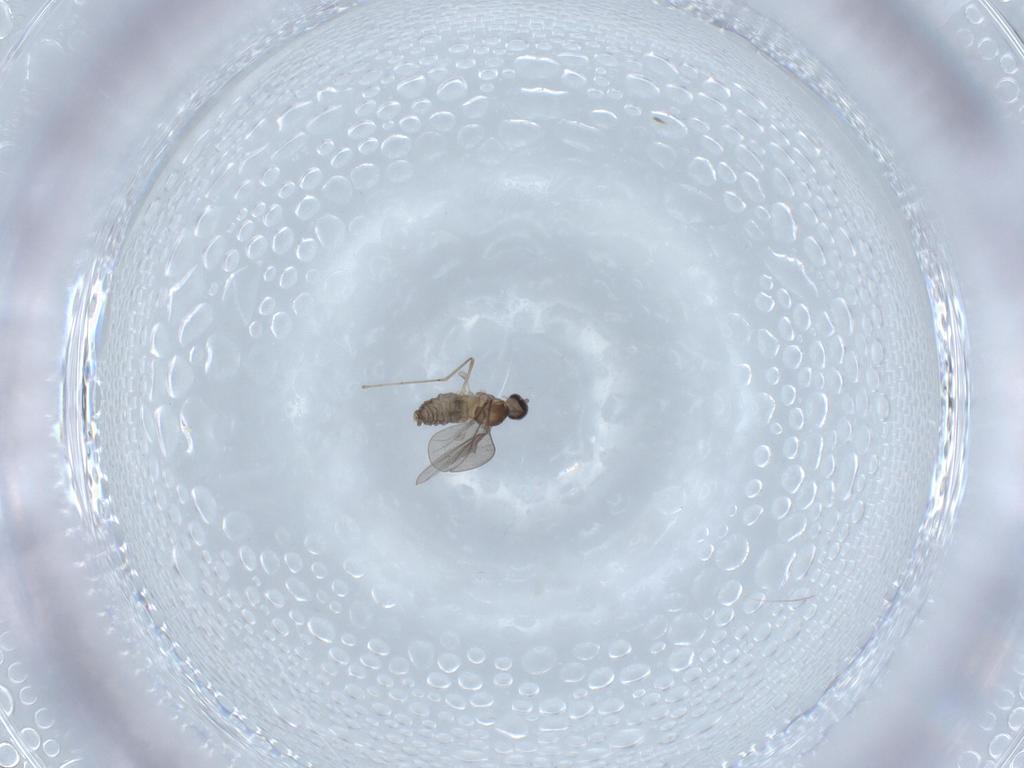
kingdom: Animalia
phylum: Arthropoda
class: Insecta
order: Diptera
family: Cecidomyiidae
